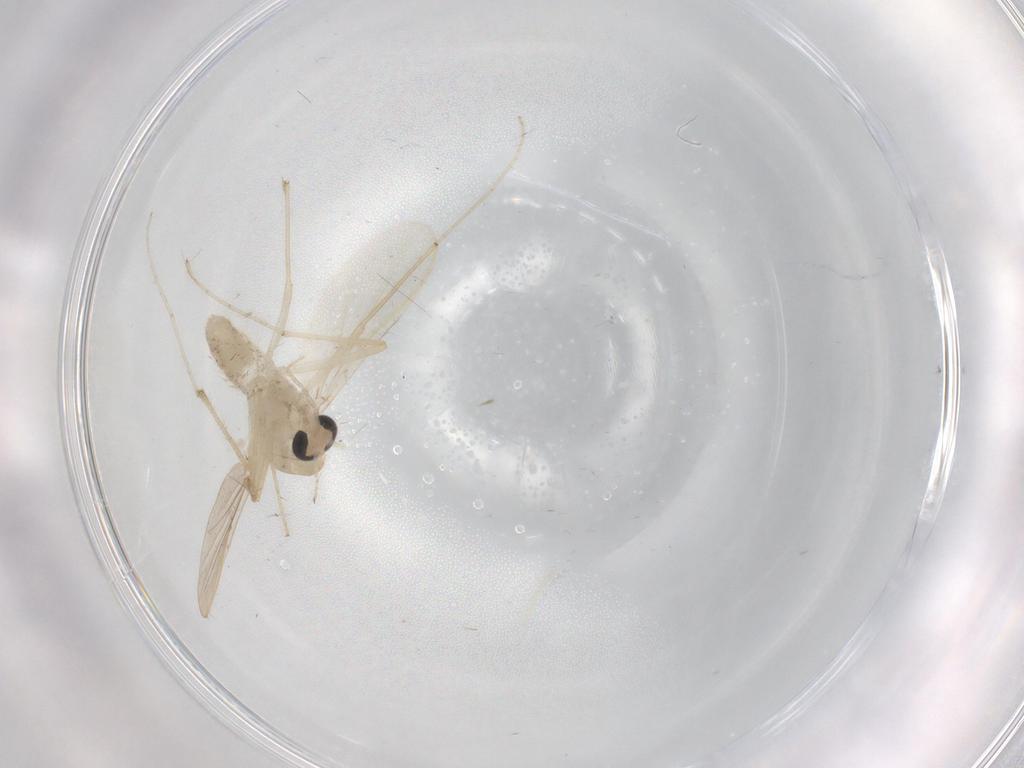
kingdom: Animalia
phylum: Arthropoda
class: Insecta
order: Diptera
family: Chironomidae
